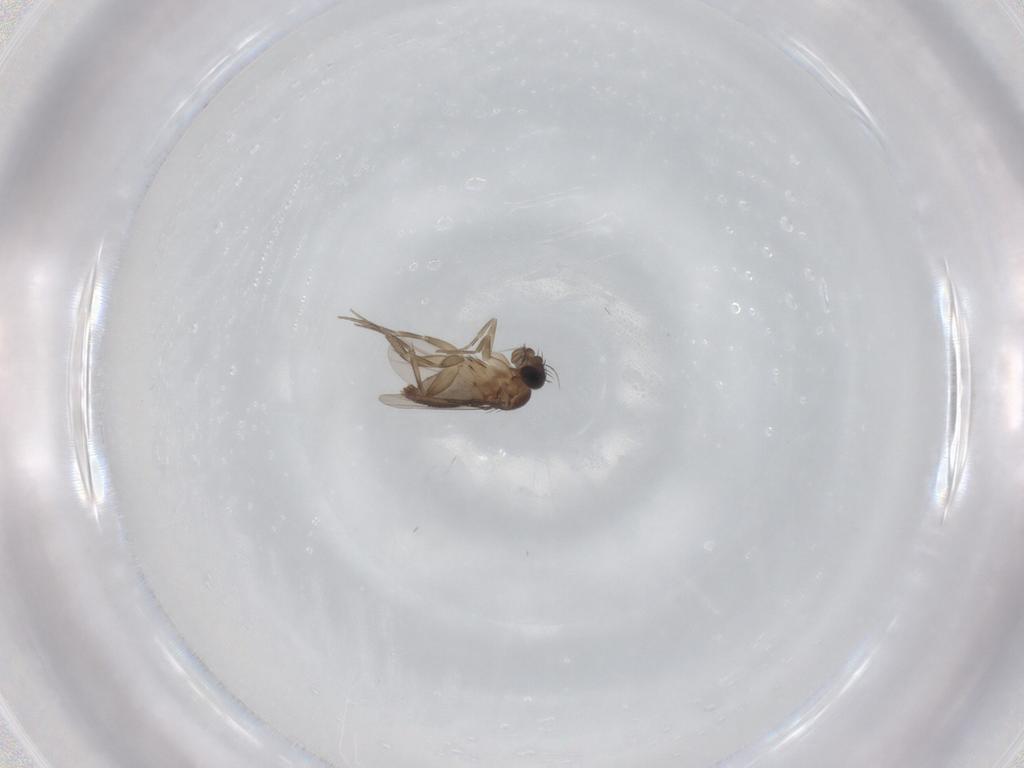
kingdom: Animalia
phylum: Arthropoda
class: Insecta
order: Diptera
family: Phoridae
